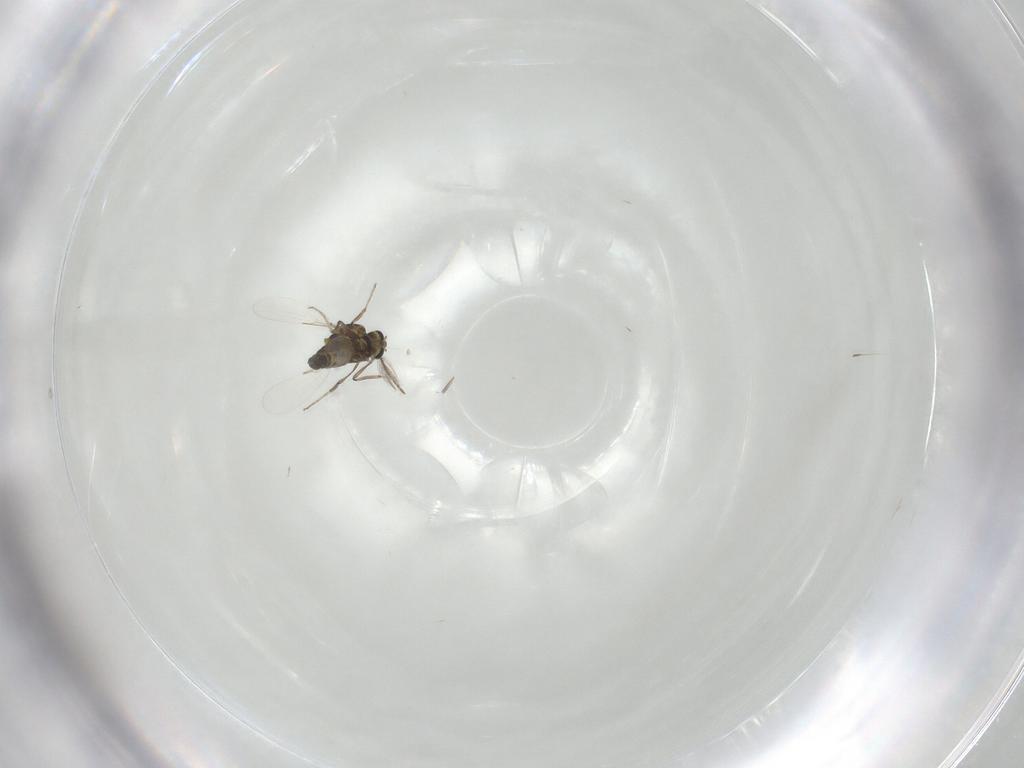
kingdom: Animalia
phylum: Arthropoda
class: Insecta
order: Diptera
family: Ceratopogonidae
